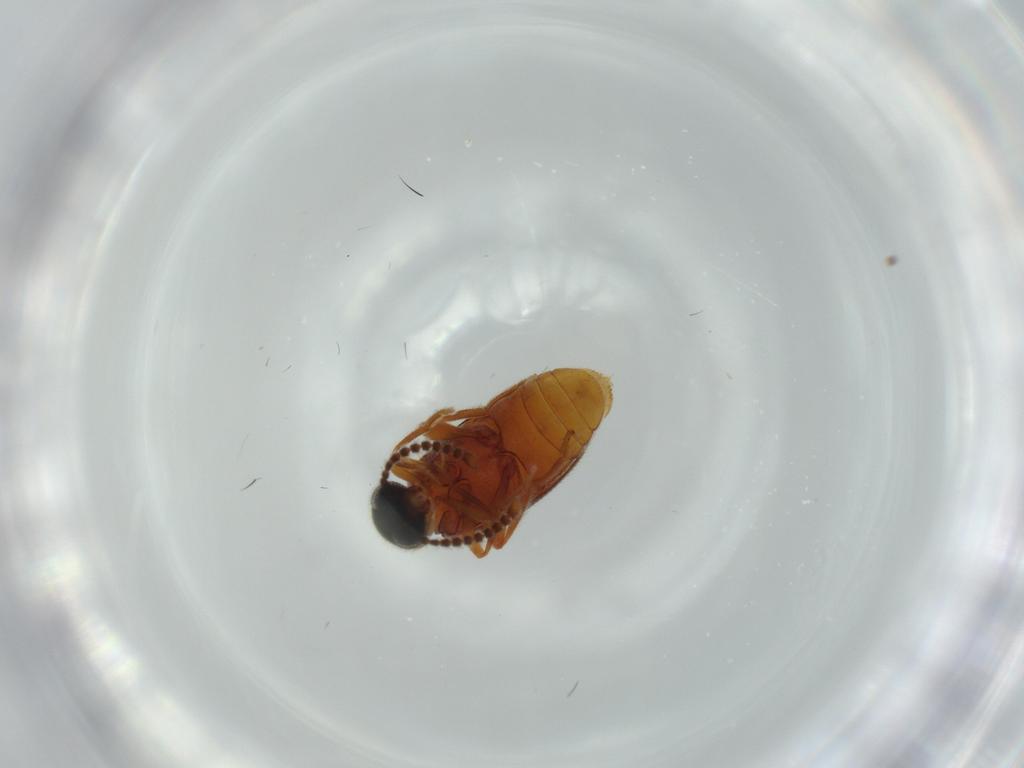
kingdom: Animalia
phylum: Arthropoda
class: Insecta
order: Coleoptera
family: Aderidae
